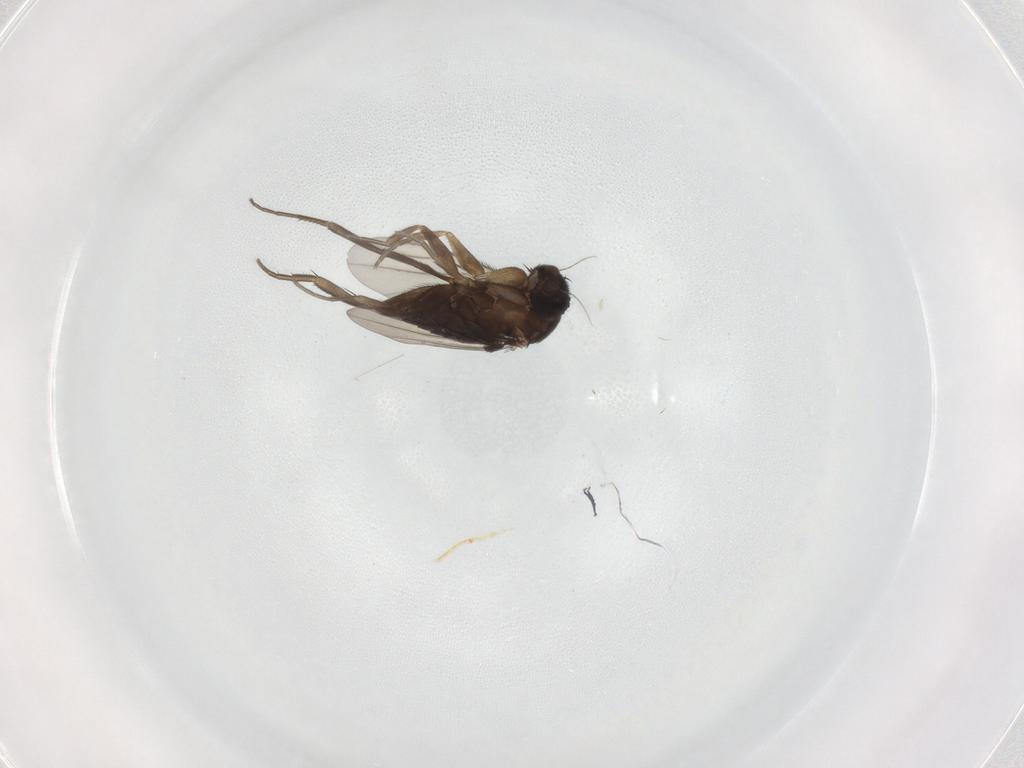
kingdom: Animalia
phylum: Arthropoda
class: Insecta
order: Diptera
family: Phoridae
